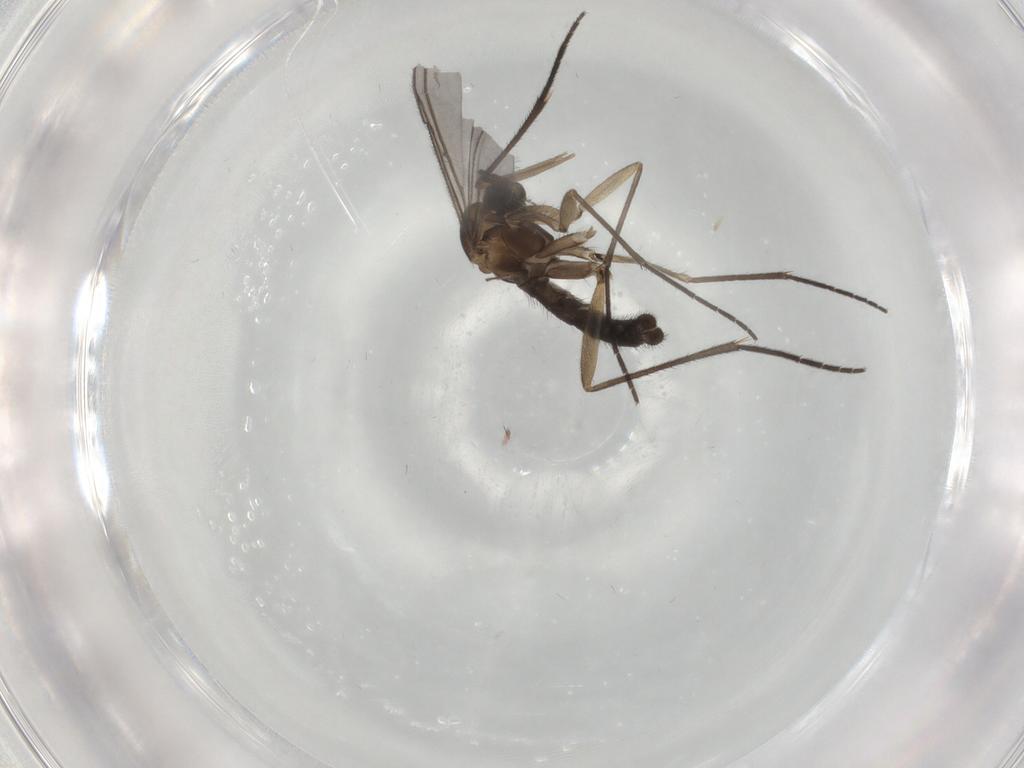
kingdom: Animalia
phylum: Arthropoda
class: Insecta
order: Diptera
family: Sciaridae
